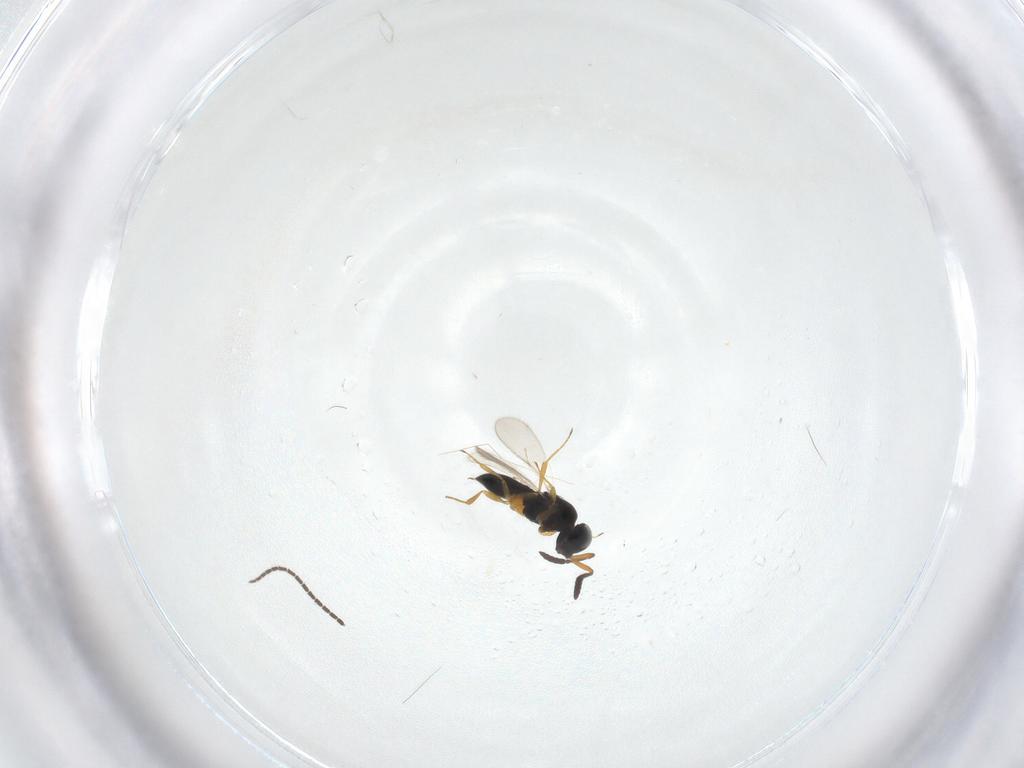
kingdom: Animalia
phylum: Arthropoda
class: Insecta
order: Hymenoptera
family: Scelionidae
